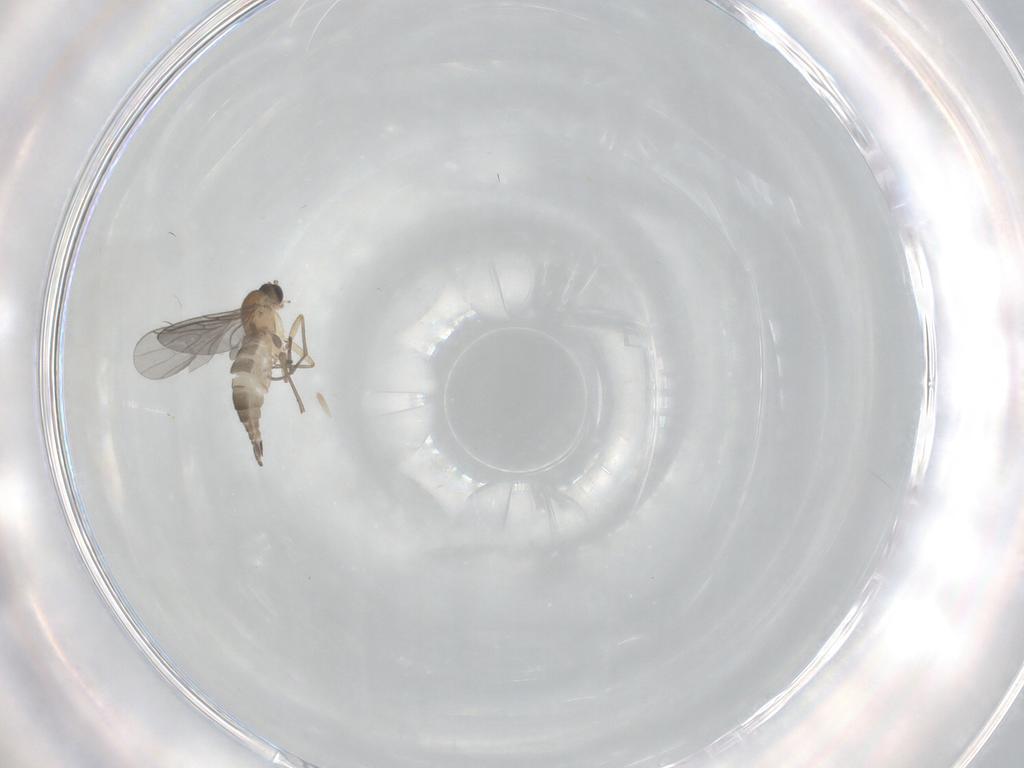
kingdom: Animalia
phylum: Arthropoda
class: Insecta
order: Diptera
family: Sciaridae
